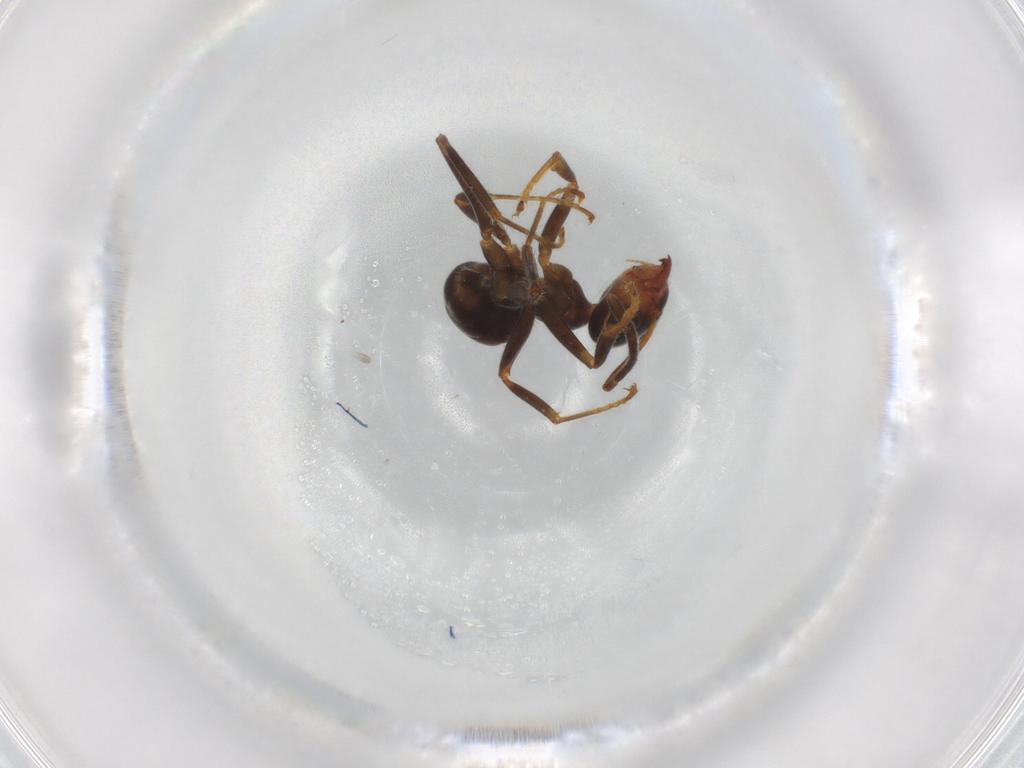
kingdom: Animalia
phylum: Arthropoda
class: Insecta
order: Hymenoptera
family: Formicidae
